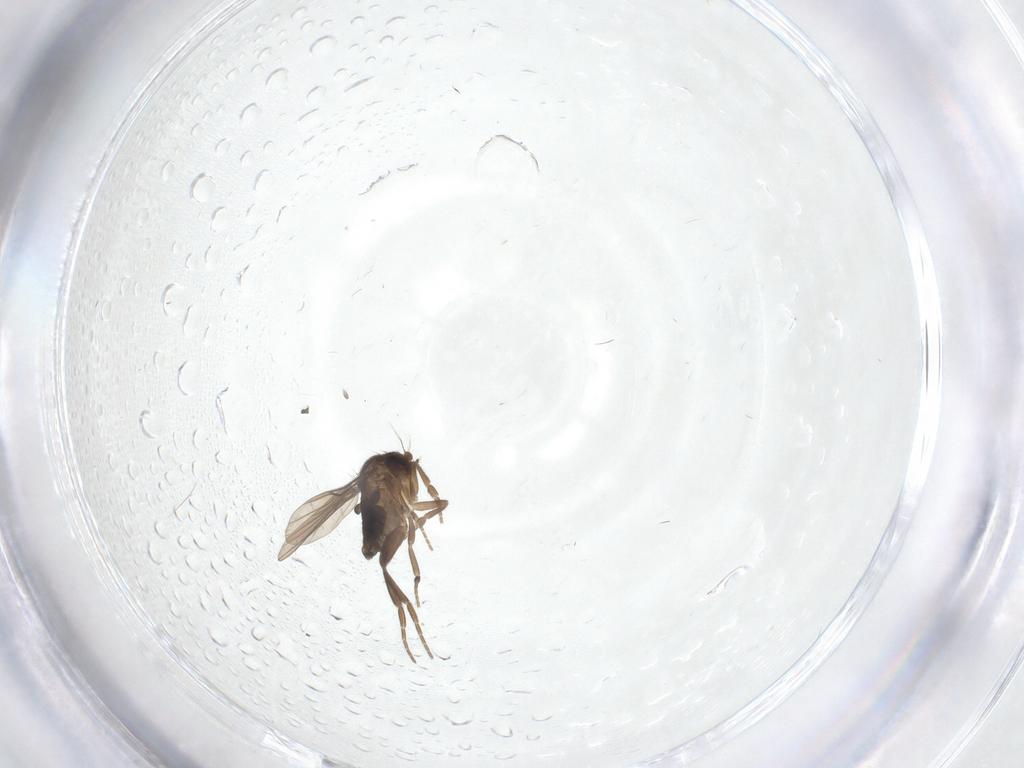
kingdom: Animalia
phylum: Arthropoda
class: Insecta
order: Diptera
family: Phoridae
